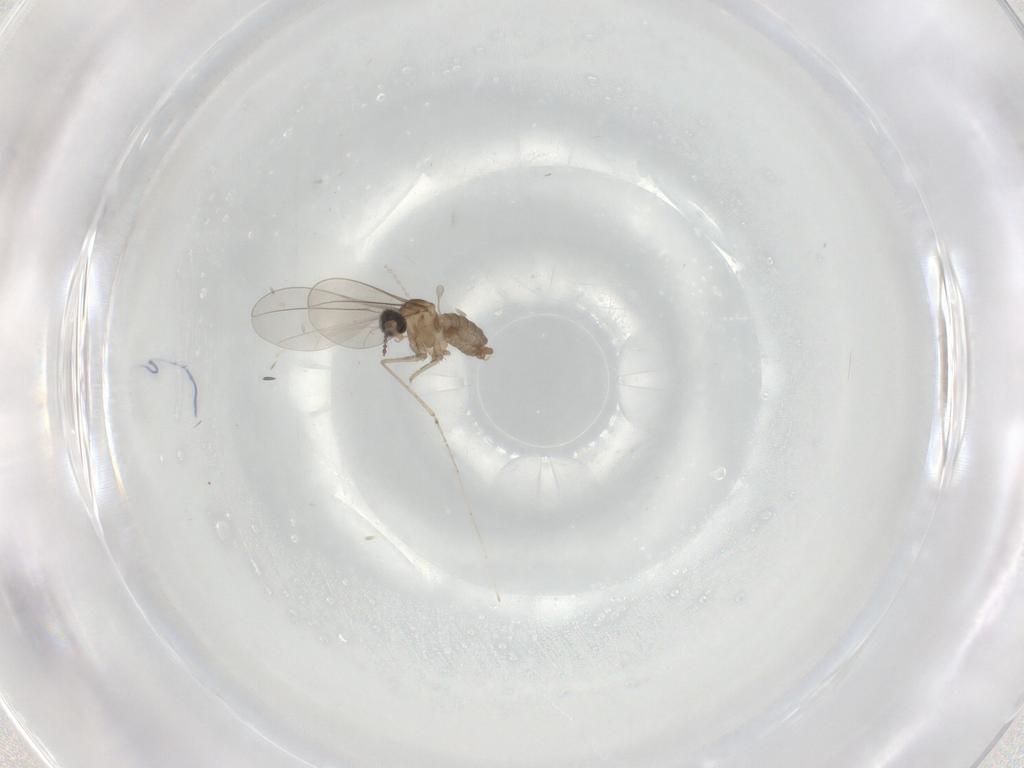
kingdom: Animalia
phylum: Arthropoda
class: Insecta
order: Diptera
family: Cecidomyiidae
